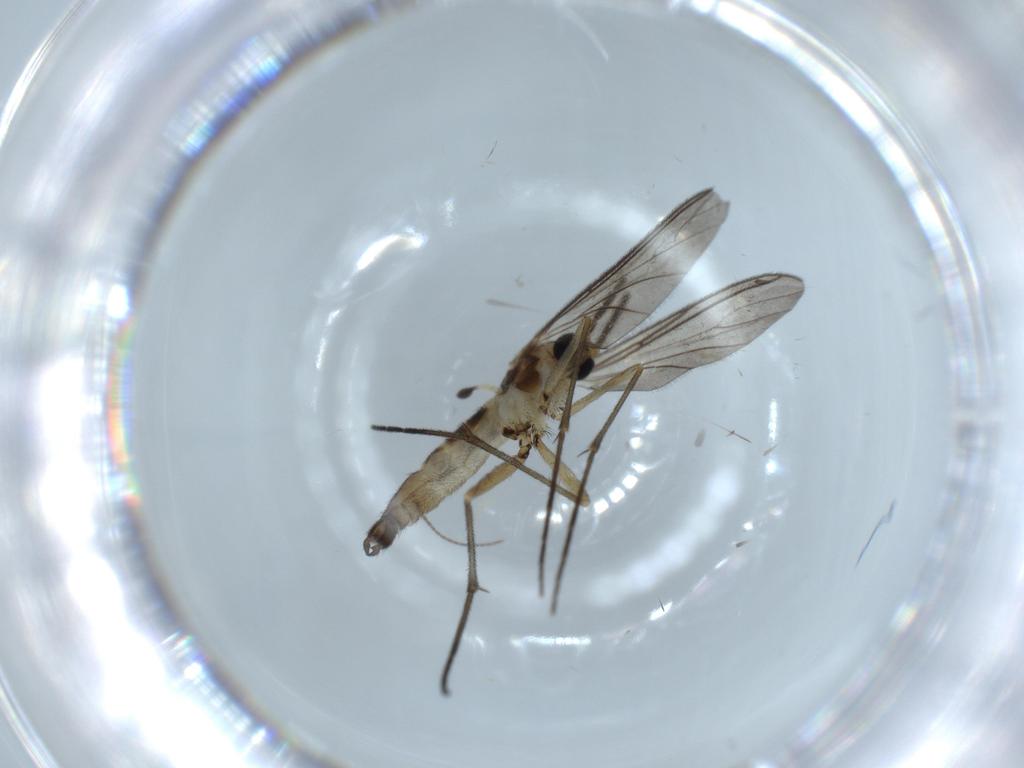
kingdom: Animalia
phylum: Arthropoda
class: Insecta
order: Diptera
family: Sciaridae
